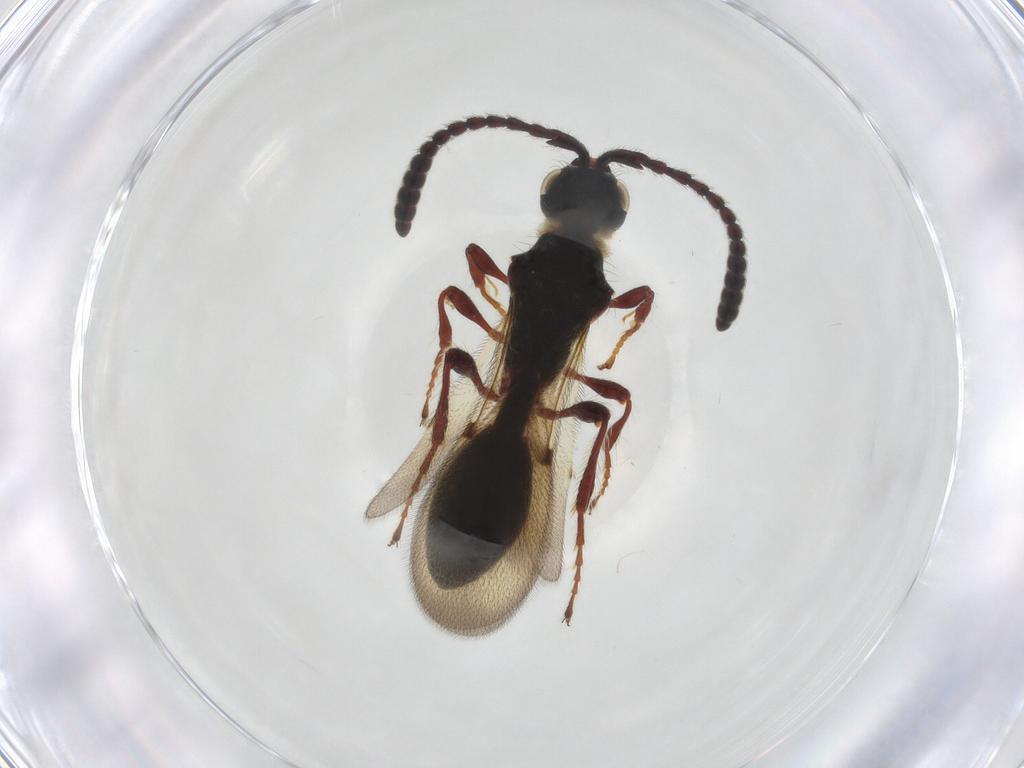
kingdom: Animalia
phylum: Arthropoda
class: Insecta
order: Hymenoptera
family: Diapriidae
